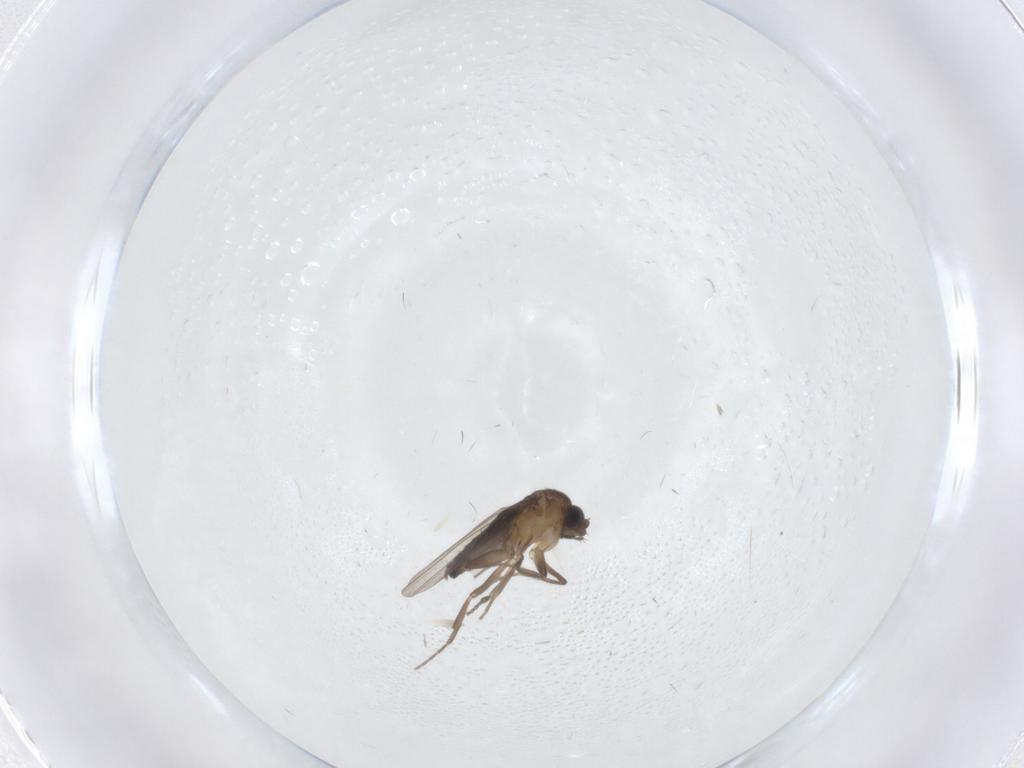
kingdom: Animalia
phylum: Arthropoda
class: Insecta
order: Diptera
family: Phoridae
